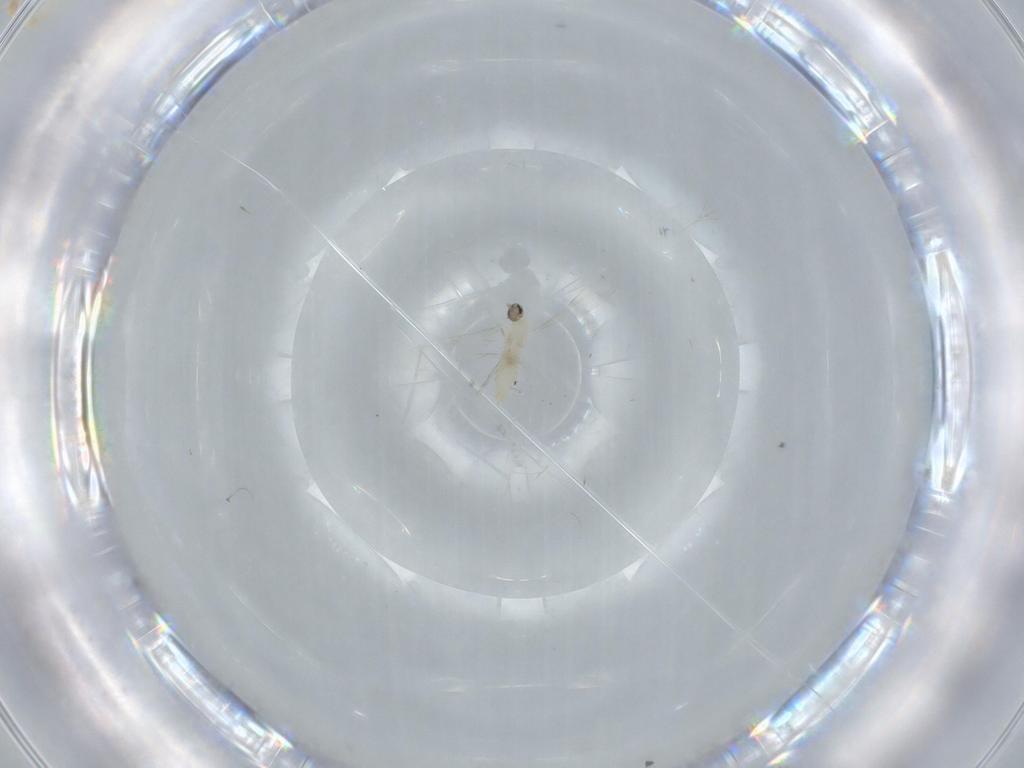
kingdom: Animalia
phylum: Arthropoda
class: Insecta
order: Diptera
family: Cecidomyiidae
